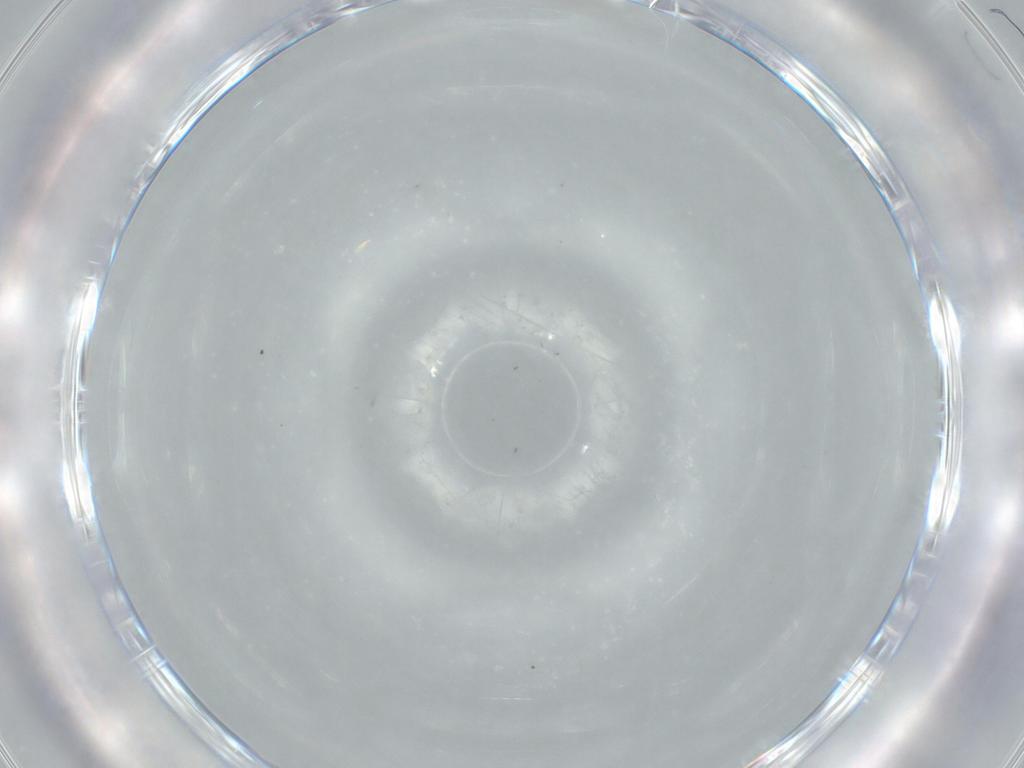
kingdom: Animalia
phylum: Arthropoda
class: Insecta
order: Diptera
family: Ceratopogonidae
